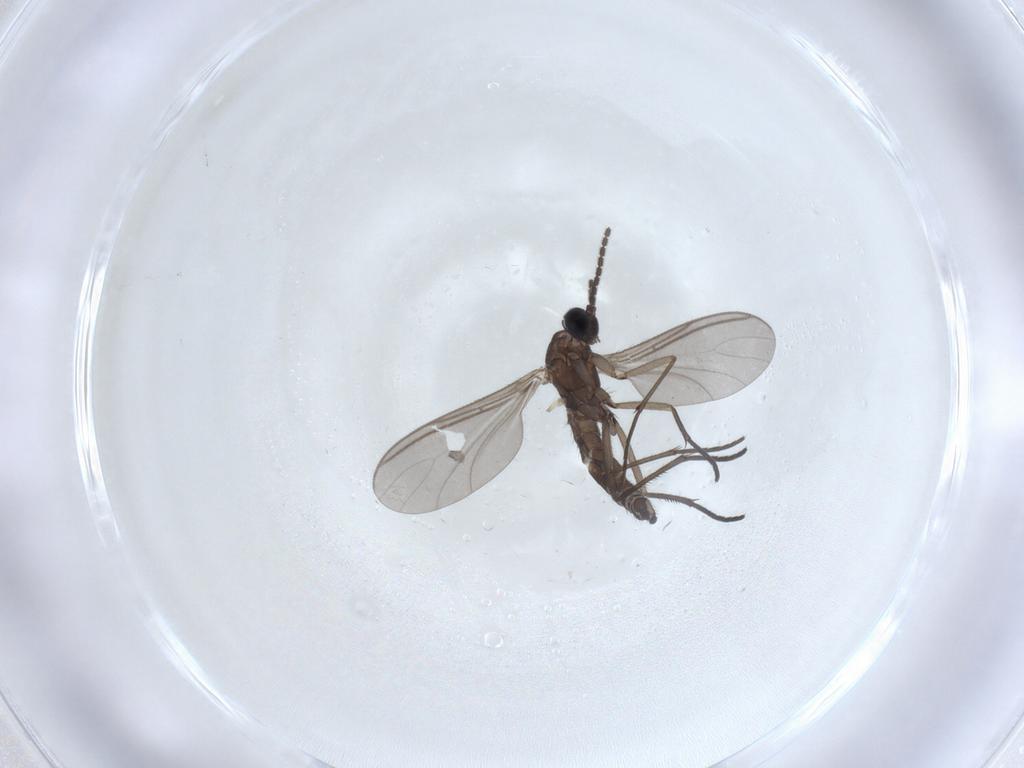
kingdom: Animalia
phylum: Arthropoda
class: Insecta
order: Diptera
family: Sciaridae
